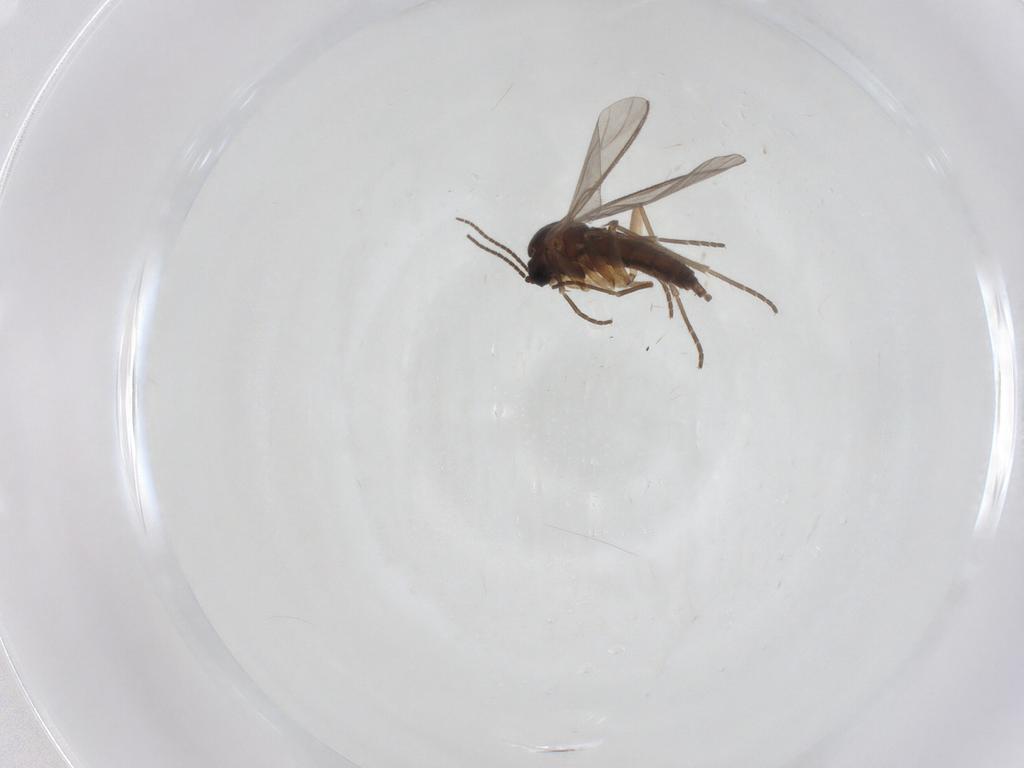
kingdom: Animalia
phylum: Arthropoda
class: Insecta
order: Diptera
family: Sciaridae
